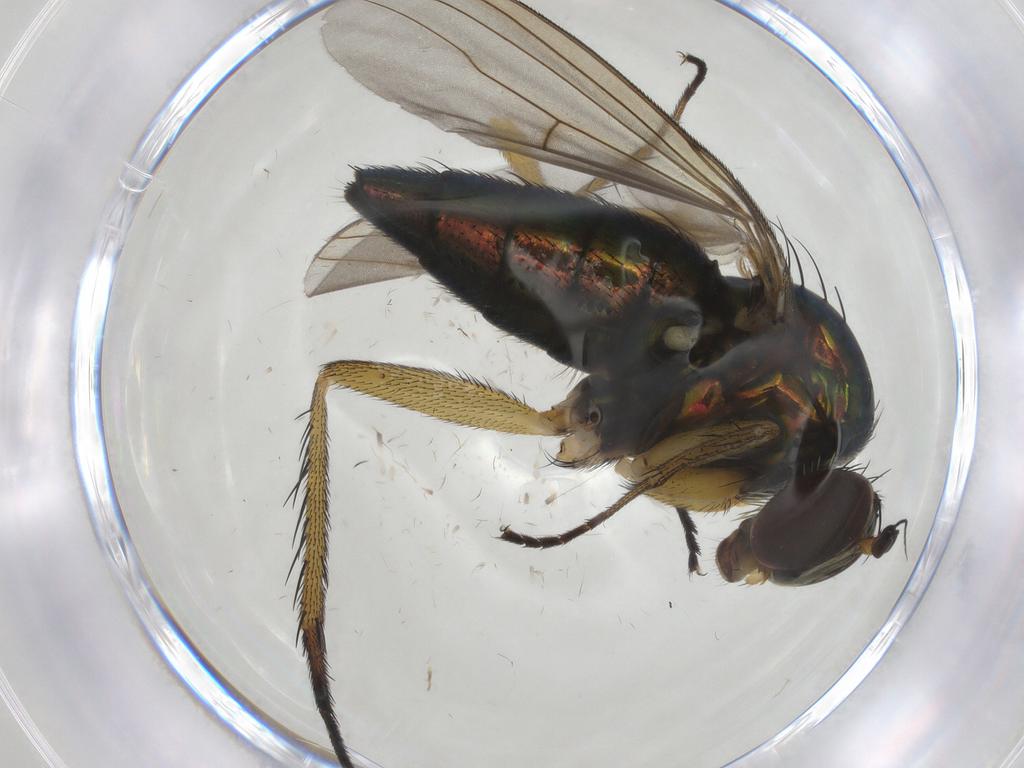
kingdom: Animalia
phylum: Arthropoda
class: Insecta
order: Diptera
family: Dolichopodidae
